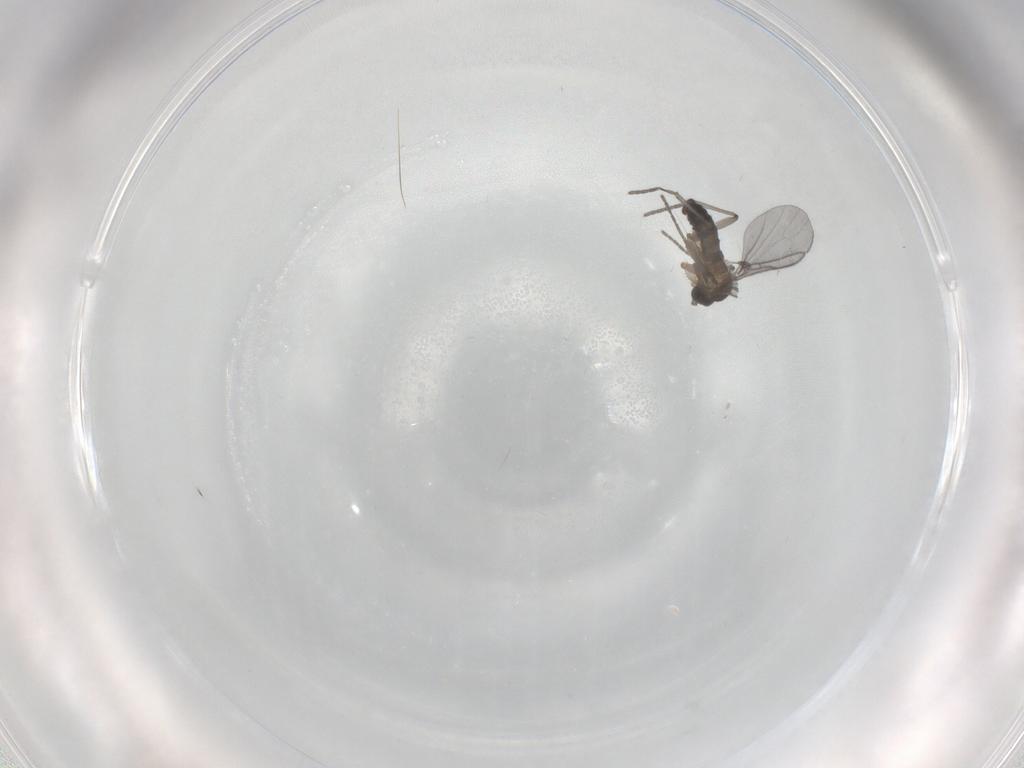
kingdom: Animalia
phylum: Arthropoda
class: Insecta
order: Diptera
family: Sciaridae
